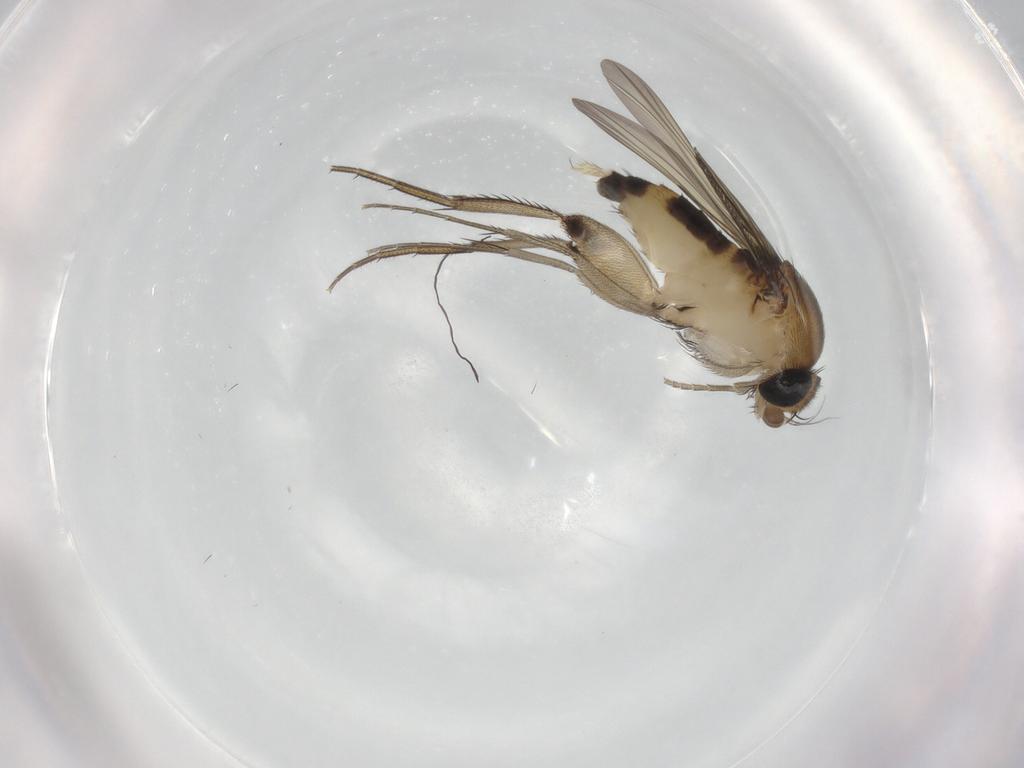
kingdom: Animalia
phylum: Arthropoda
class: Insecta
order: Diptera
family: Phoridae
